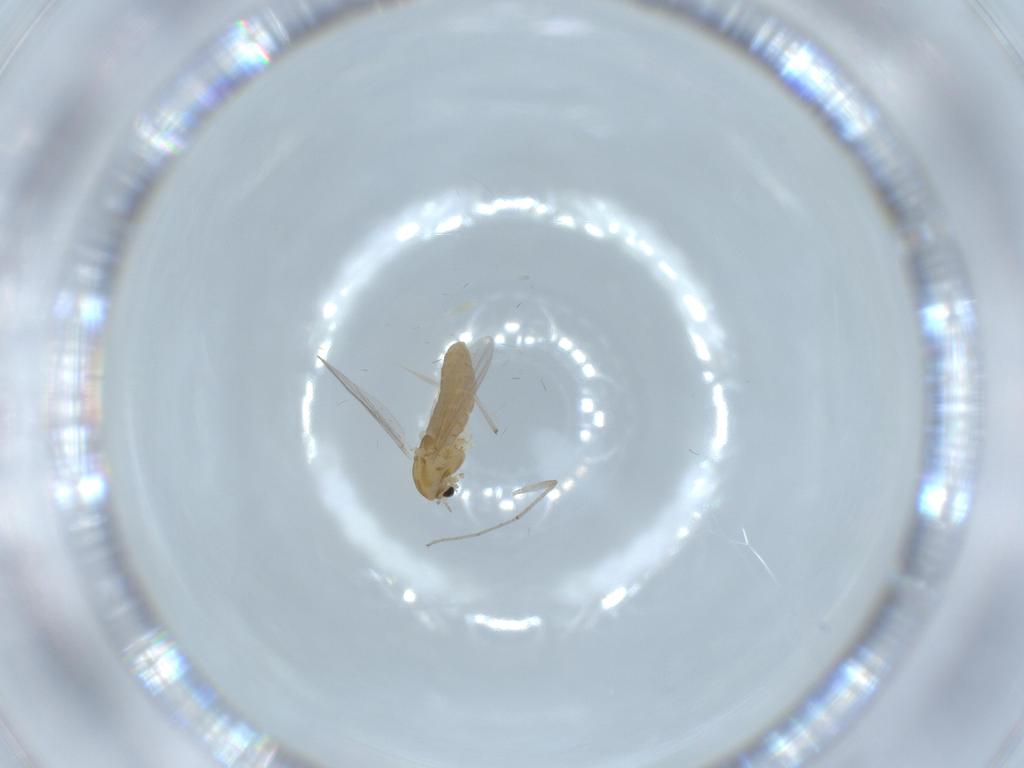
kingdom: Animalia
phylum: Arthropoda
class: Insecta
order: Diptera
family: Chironomidae
